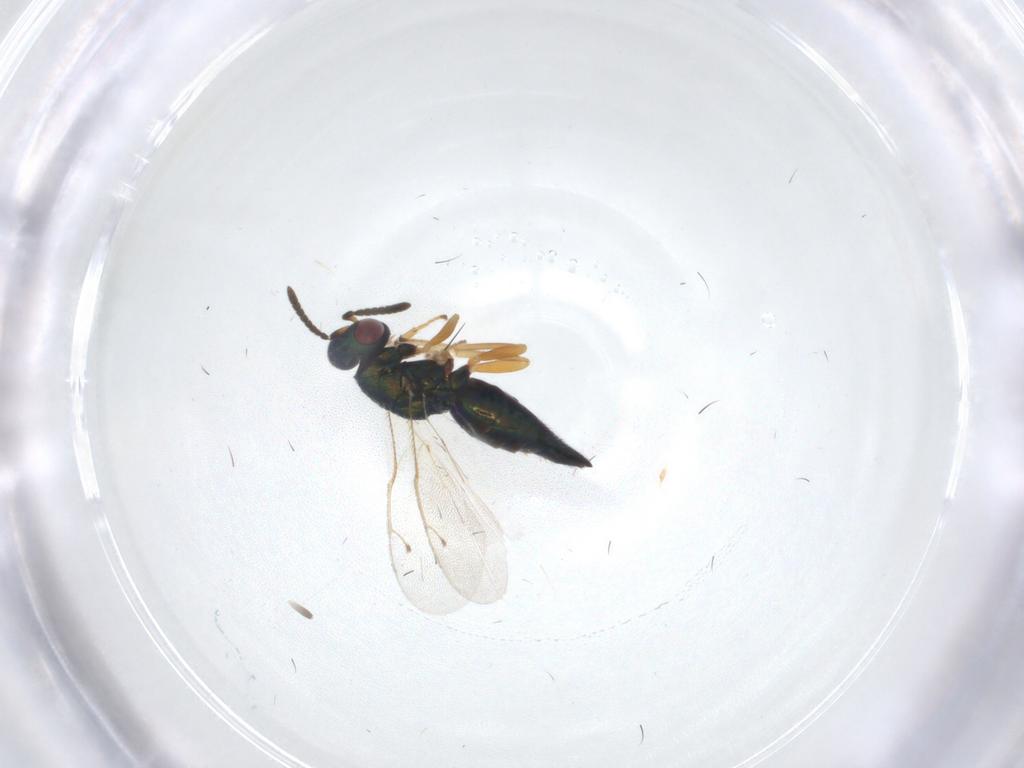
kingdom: Animalia
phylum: Arthropoda
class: Insecta
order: Hymenoptera
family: Pteromalidae
